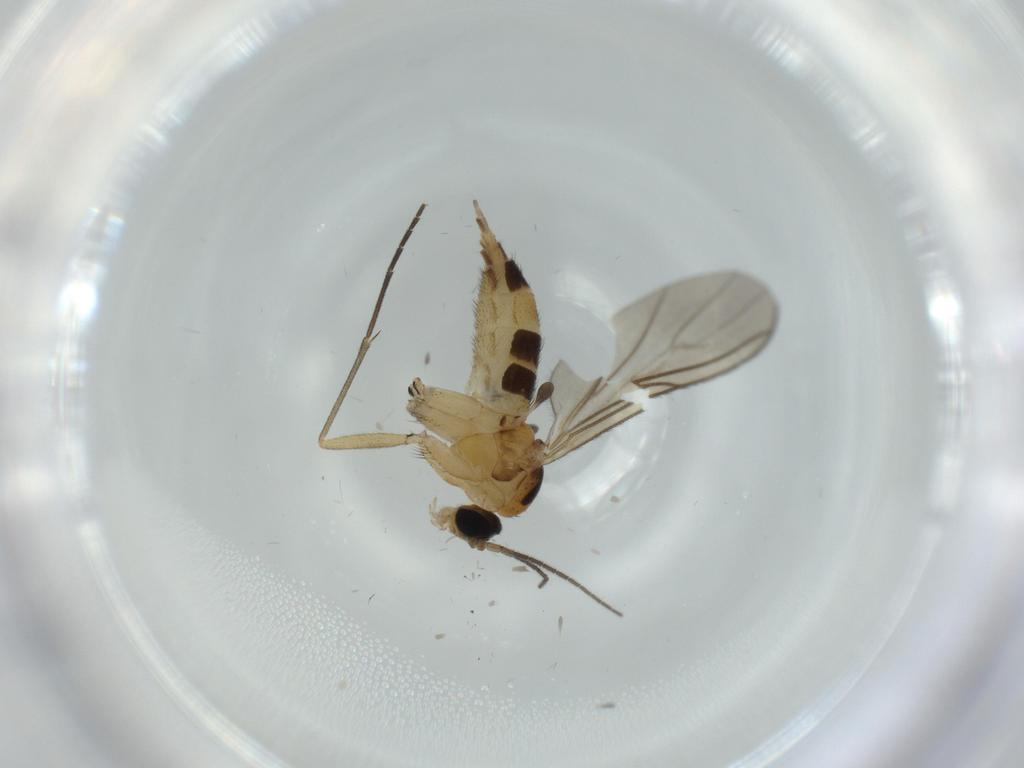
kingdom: Animalia
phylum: Arthropoda
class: Insecta
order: Diptera
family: Sciaridae
